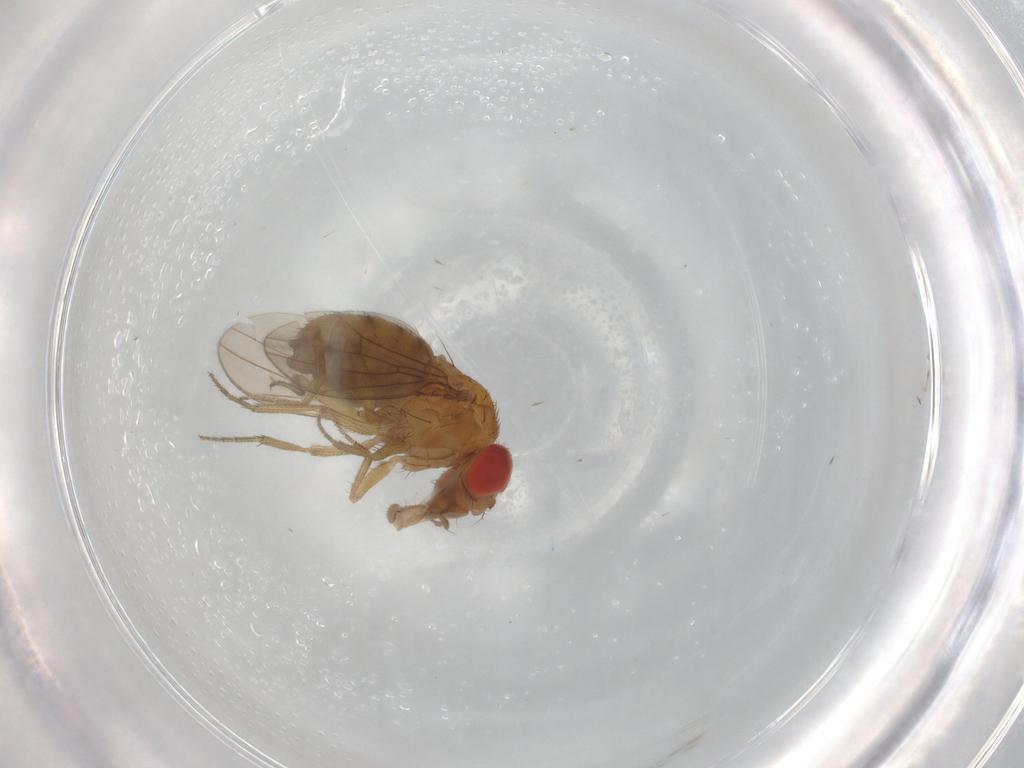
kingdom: Animalia
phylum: Arthropoda
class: Insecta
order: Diptera
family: Drosophilidae
